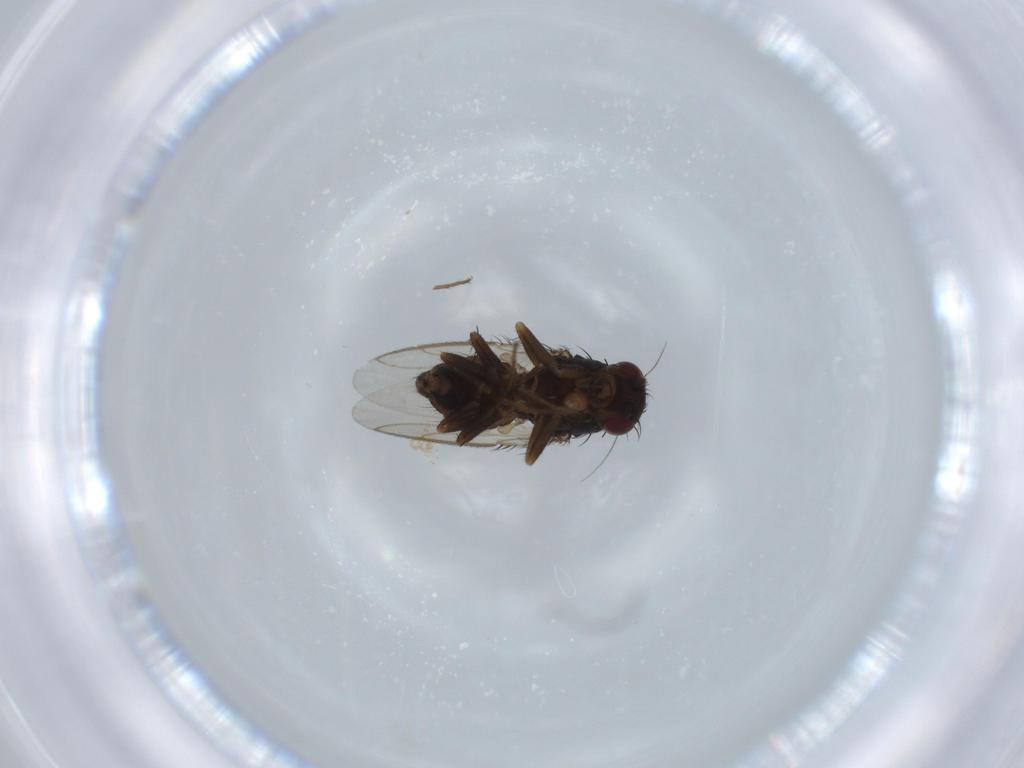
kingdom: Animalia
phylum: Arthropoda
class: Insecta
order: Diptera
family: Sphaeroceridae
